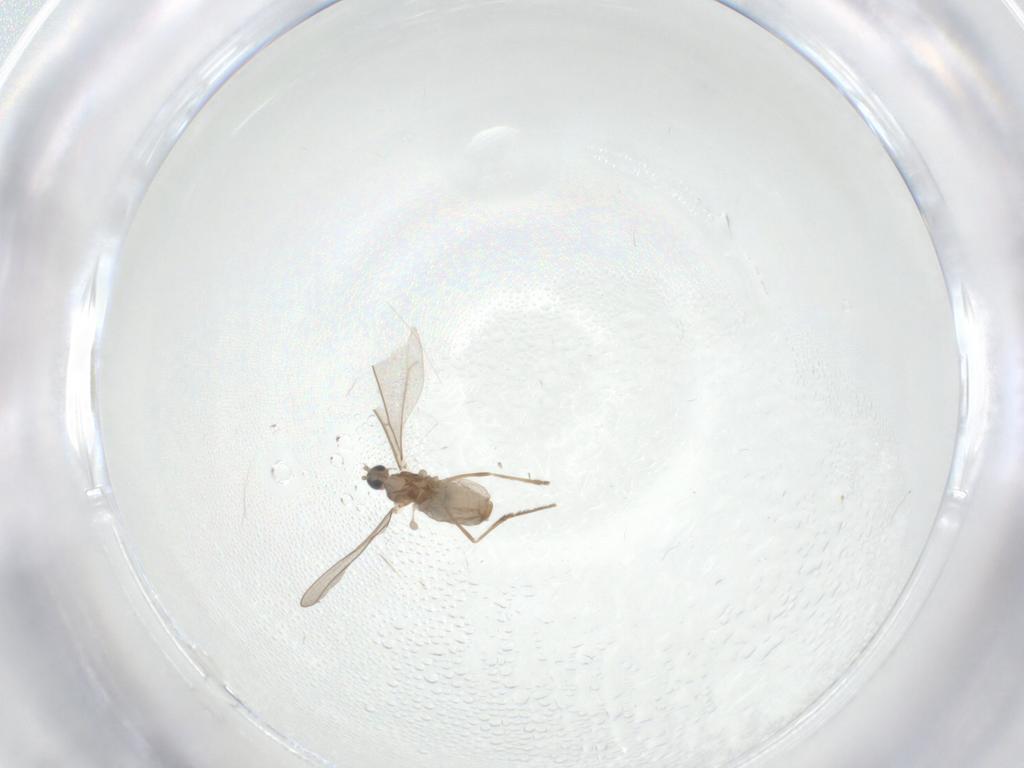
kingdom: Animalia
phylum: Arthropoda
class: Insecta
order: Diptera
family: Cecidomyiidae
